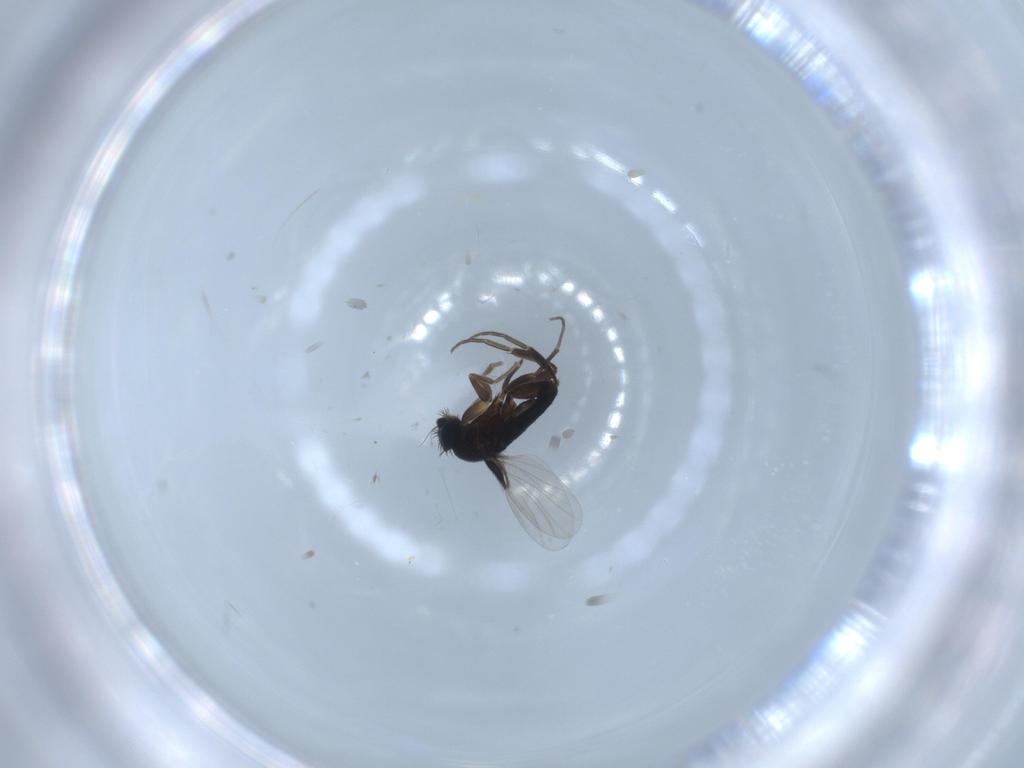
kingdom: Animalia
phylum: Arthropoda
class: Insecta
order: Diptera
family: Phoridae
